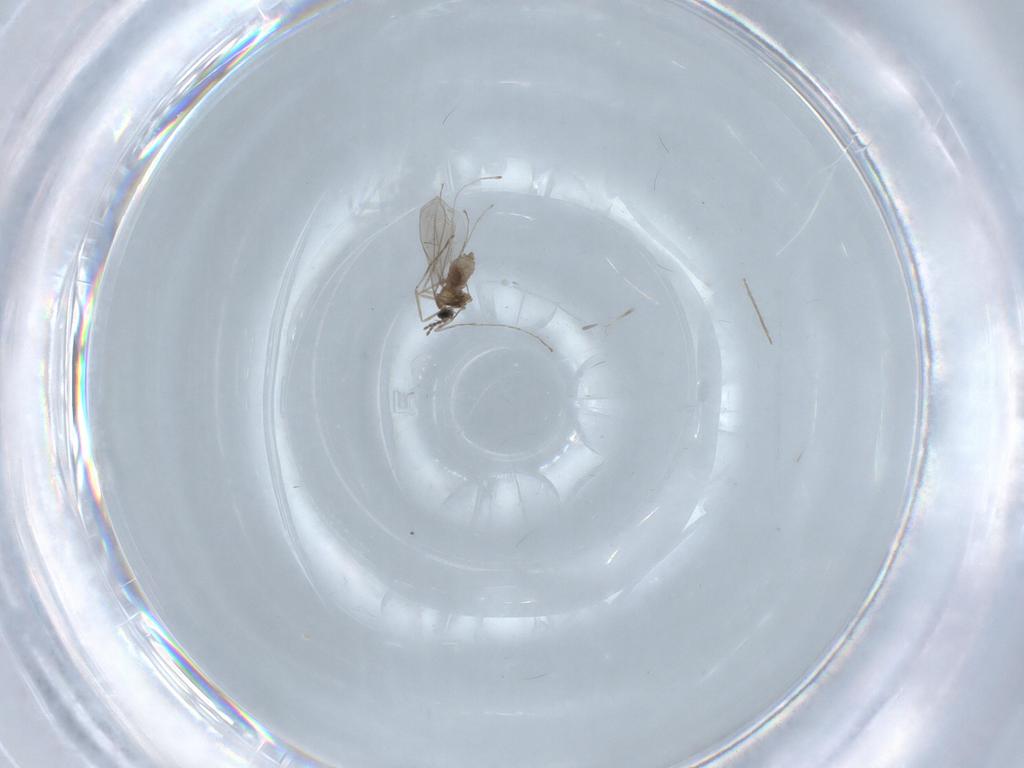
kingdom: Animalia
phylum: Arthropoda
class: Insecta
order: Diptera
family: Cecidomyiidae
